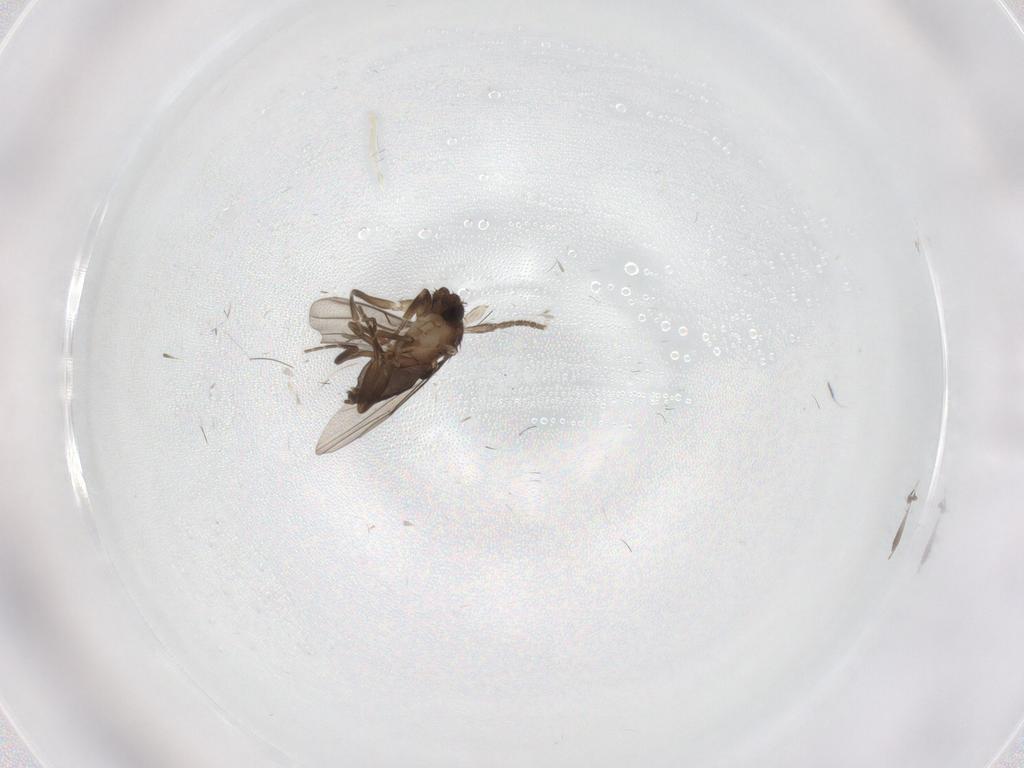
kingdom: Animalia
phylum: Arthropoda
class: Insecta
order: Diptera
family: Phoridae
